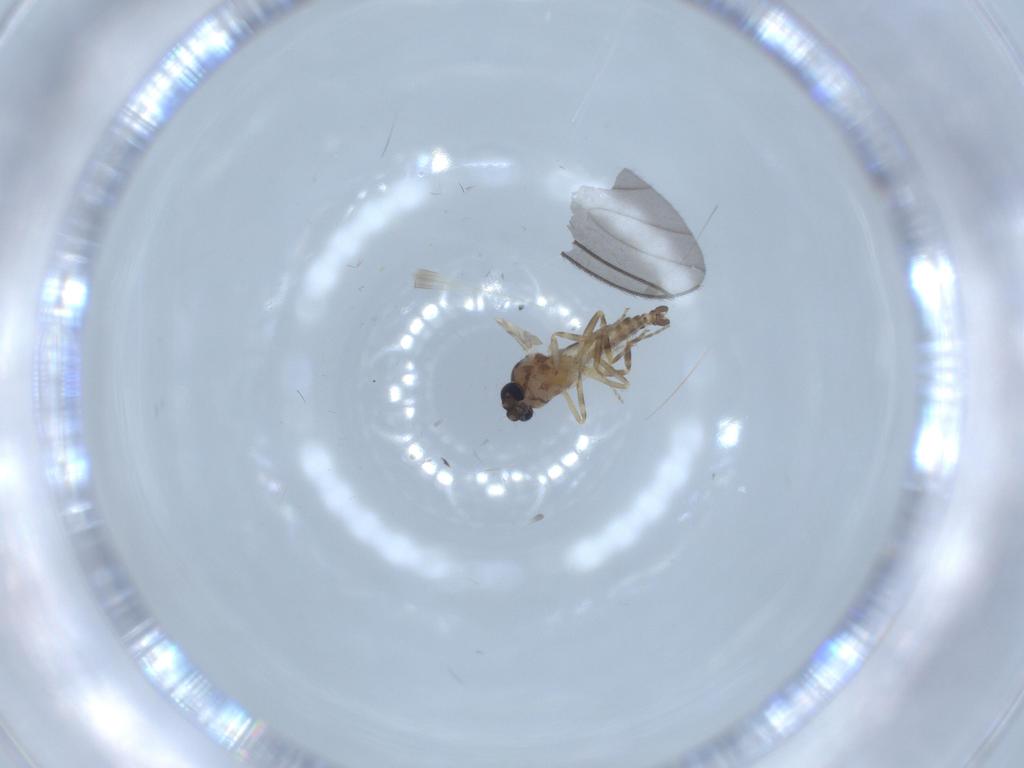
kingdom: Animalia
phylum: Arthropoda
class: Insecta
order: Diptera
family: Ceratopogonidae
